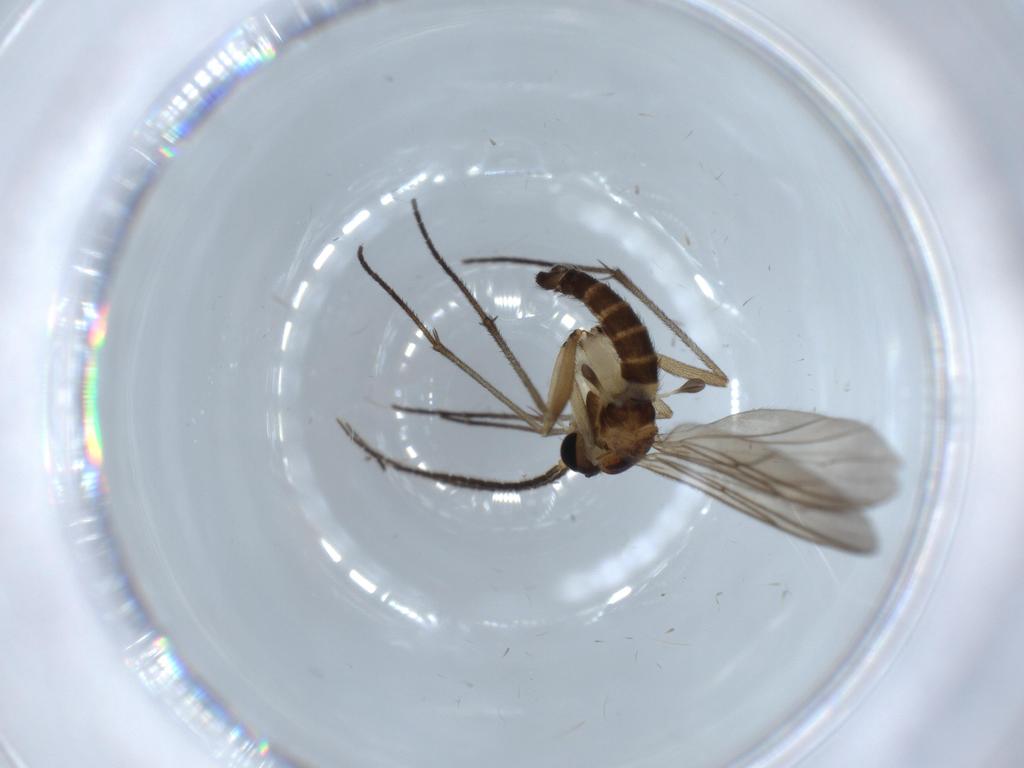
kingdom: Animalia
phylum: Arthropoda
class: Insecta
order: Diptera
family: Sciaridae
